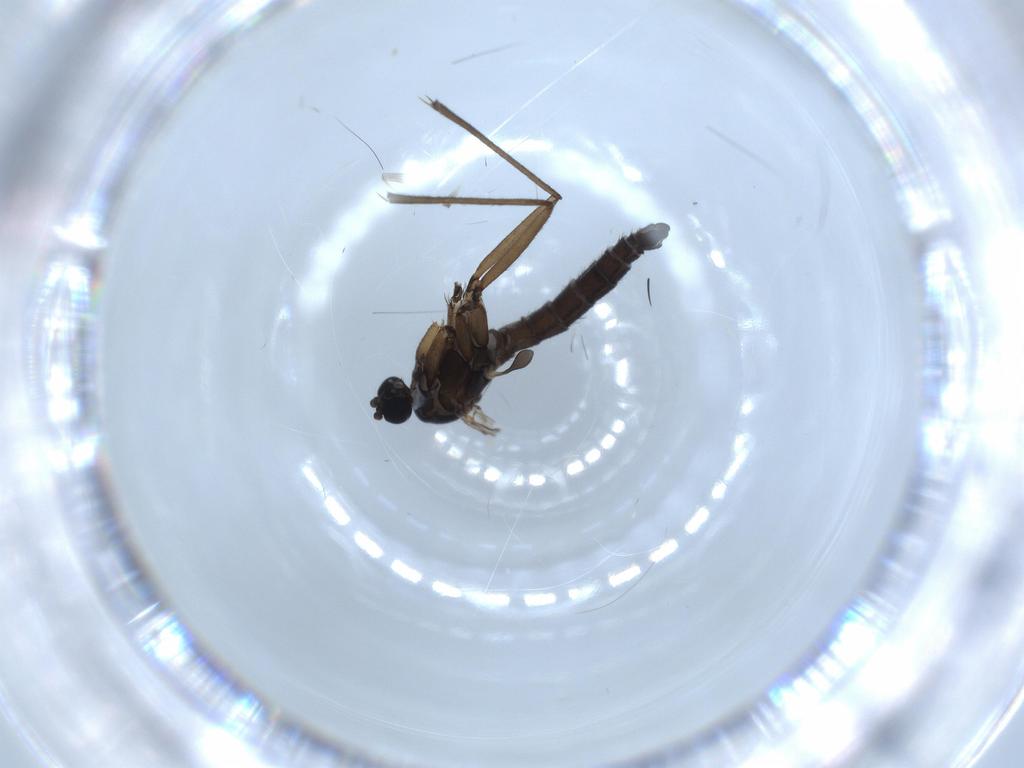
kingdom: Animalia
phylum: Arthropoda
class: Insecta
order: Diptera
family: Sciaridae
